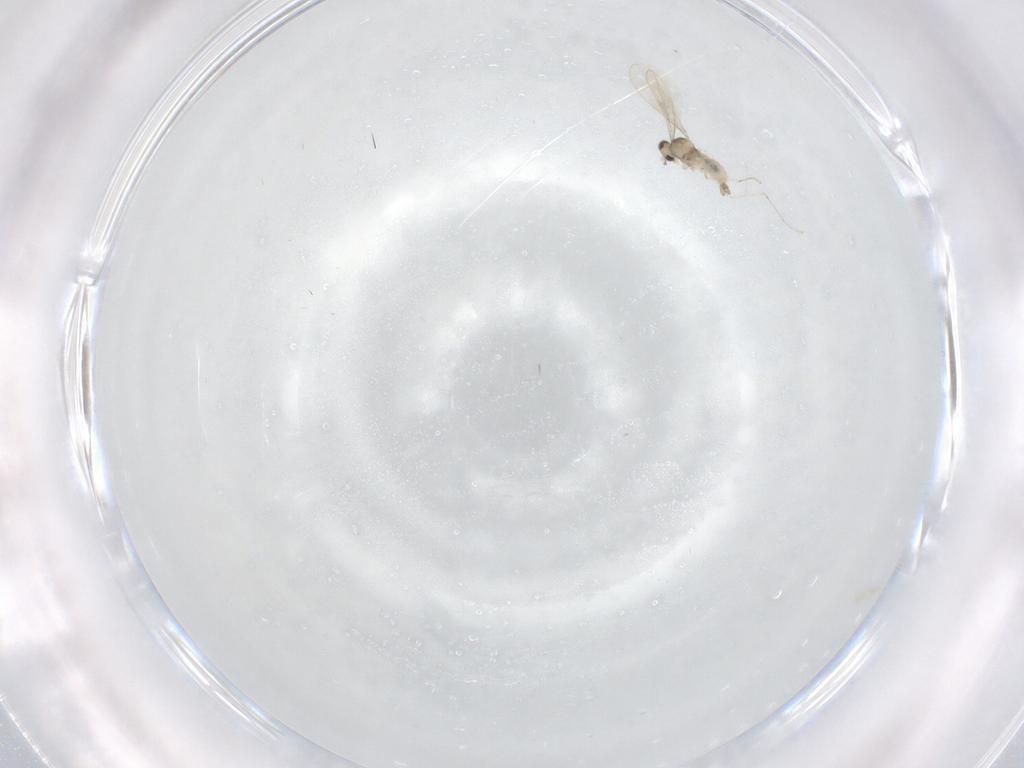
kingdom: Animalia
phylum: Arthropoda
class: Insecta
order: Diptera
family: Cecidomyiidae
